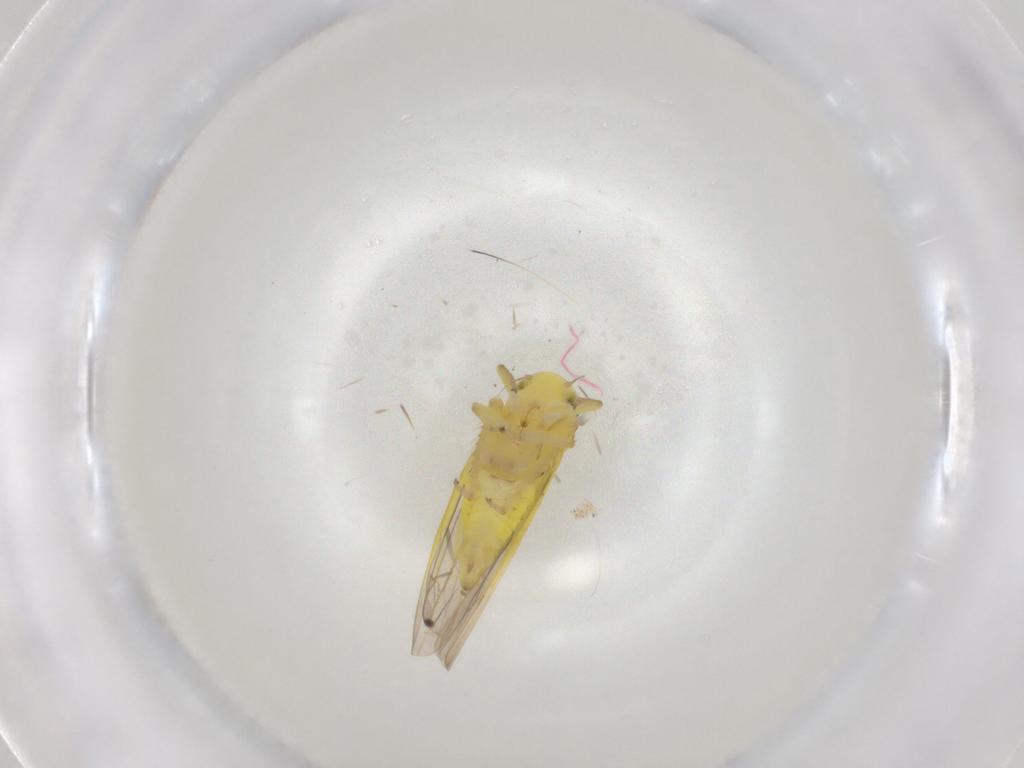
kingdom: Animalia
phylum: Arthropoda
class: Insecta
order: Hemiptera
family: Cicadellidae
